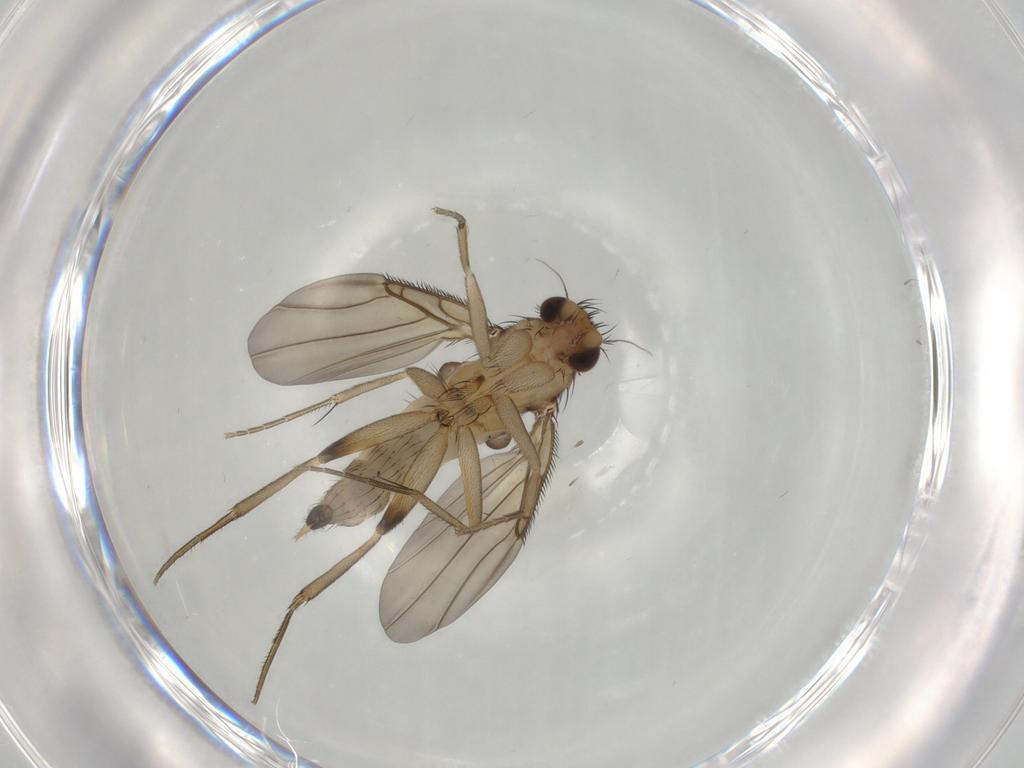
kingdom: Animalia
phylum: Arthropoda
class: Insecta
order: Diptera
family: Phoridae
